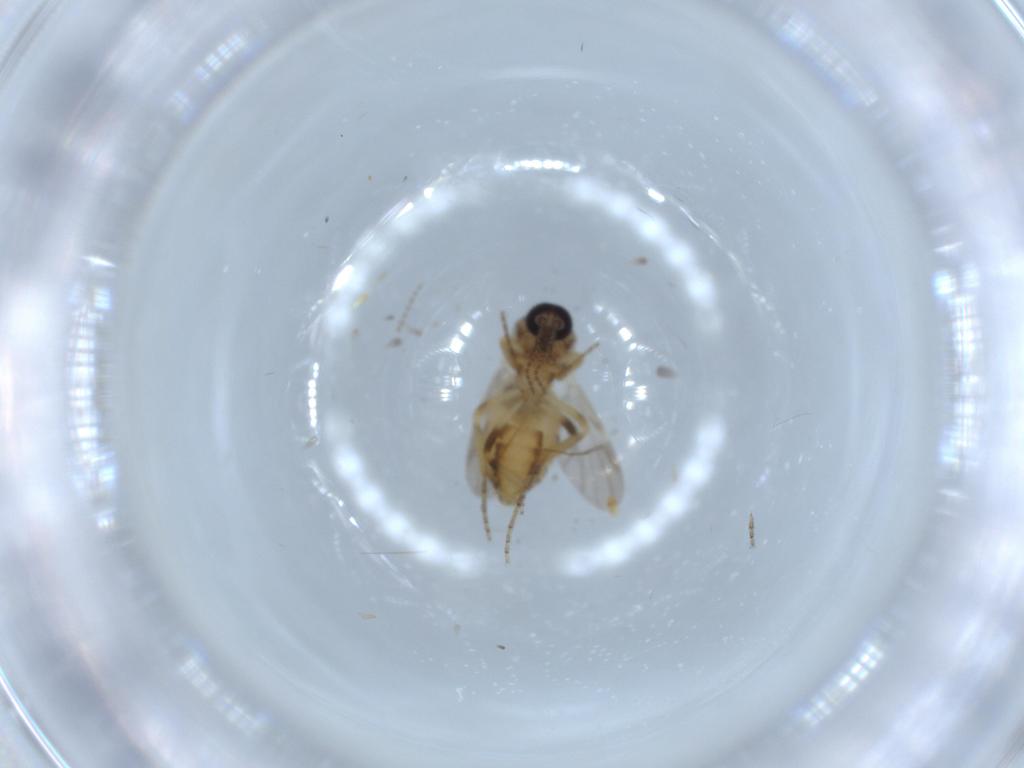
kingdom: Animalia
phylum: Arthropoda
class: Insecta
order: Diptera
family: Ceratopogonidae
